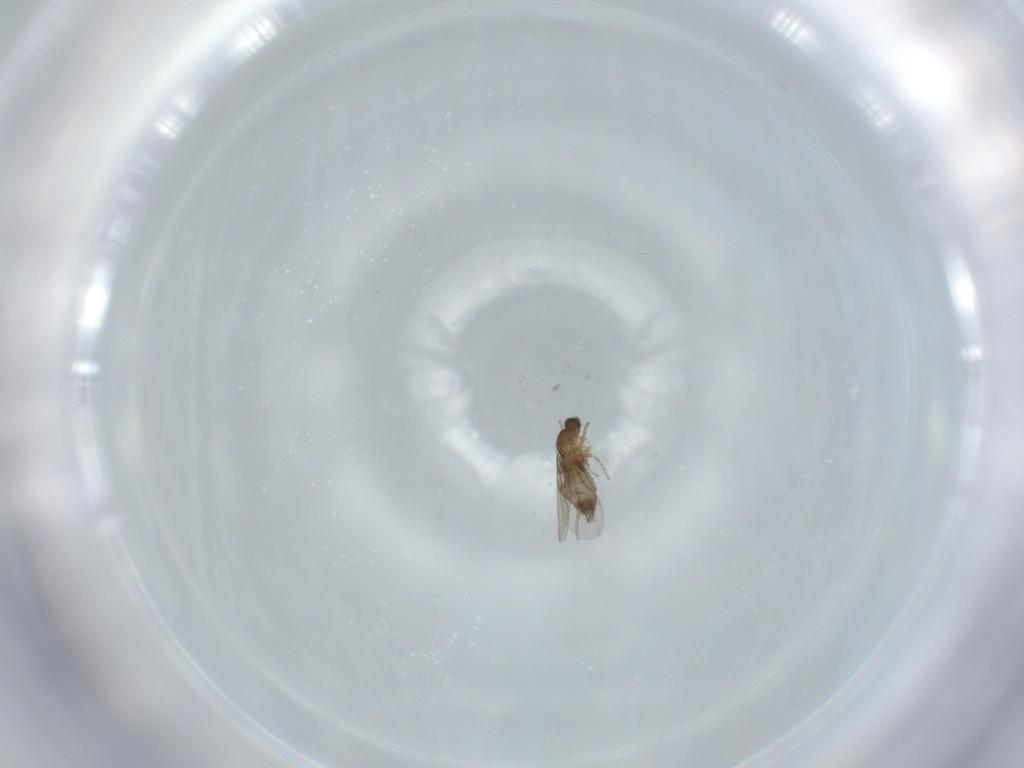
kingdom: Animalia
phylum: Arthropoda
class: Insecta
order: Diptera
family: Phoridae
